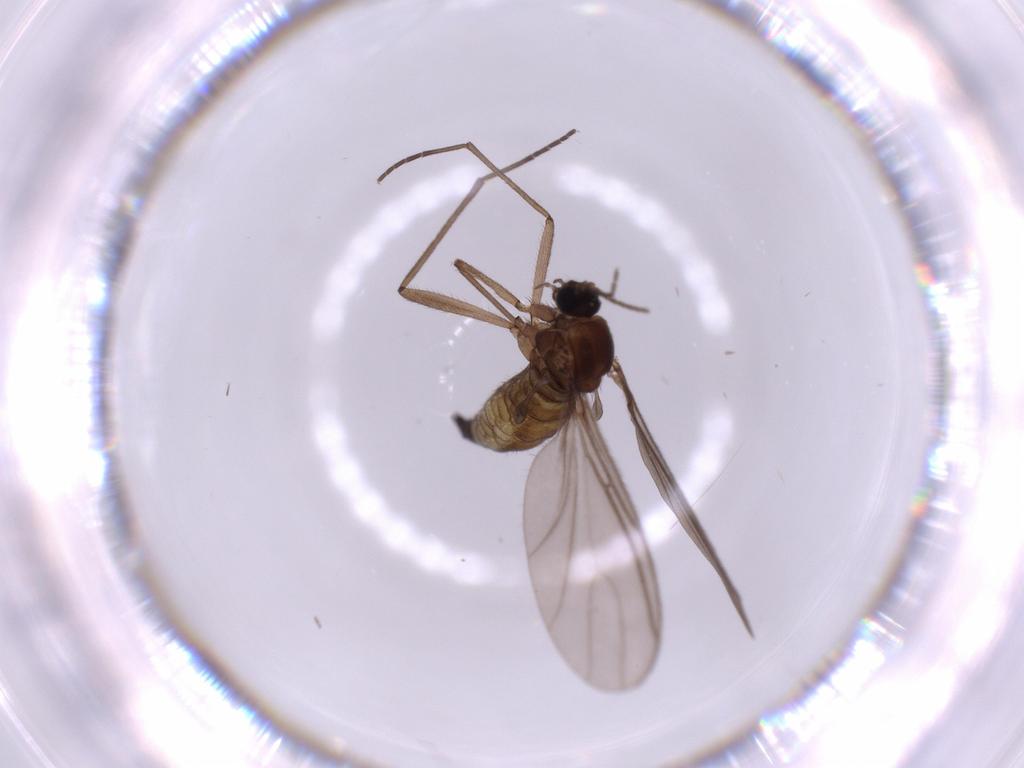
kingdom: Animalia
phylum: Arthropoda
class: Insecta
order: Diptera
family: Sciaridae
